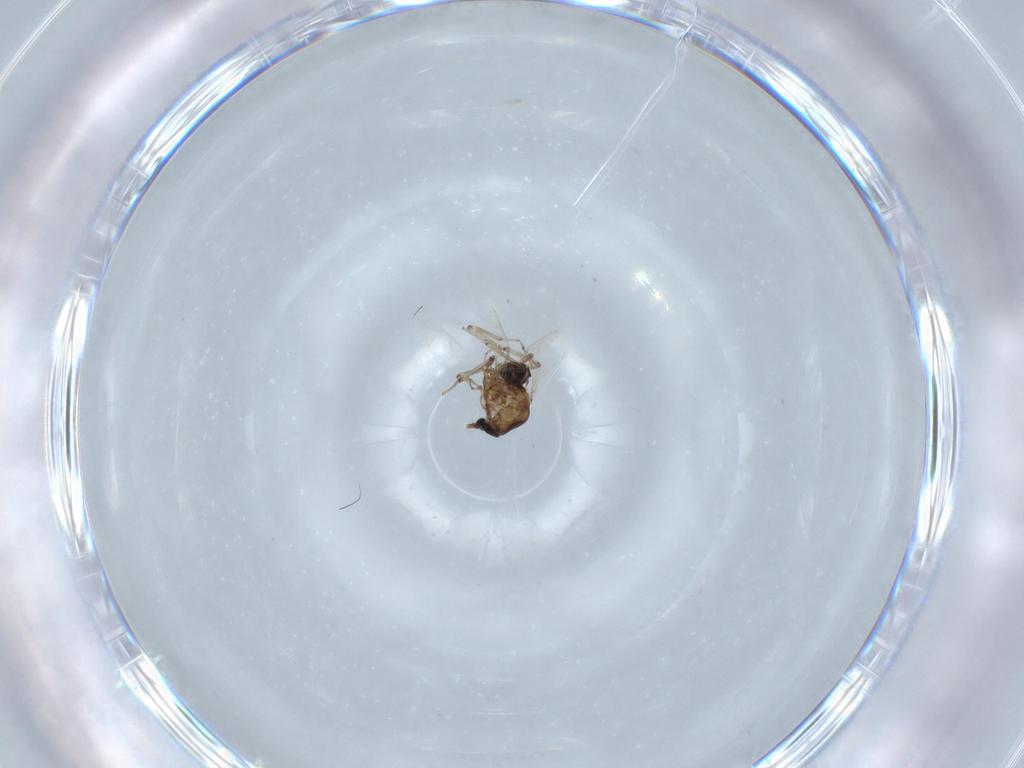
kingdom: Animalia
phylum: Arthropoda
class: Insecta
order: Diptera
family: Ceratopogonidae
